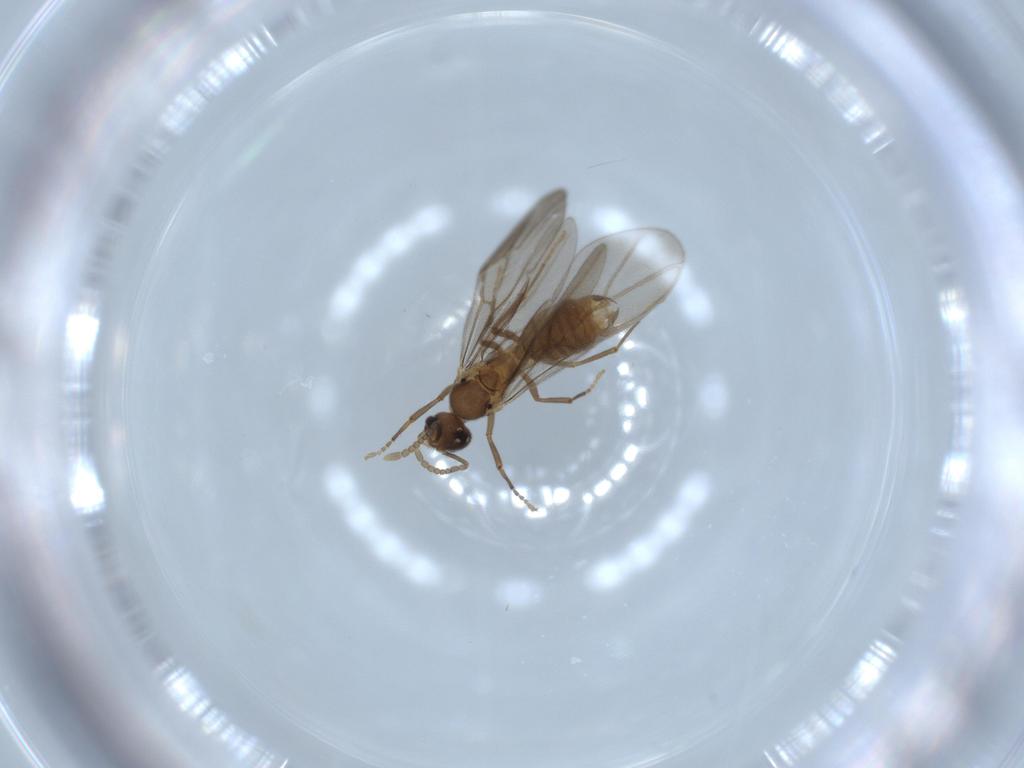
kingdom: Animalia
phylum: Arthropoda
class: Insecta
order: Hymenoptera
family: Formicidae
